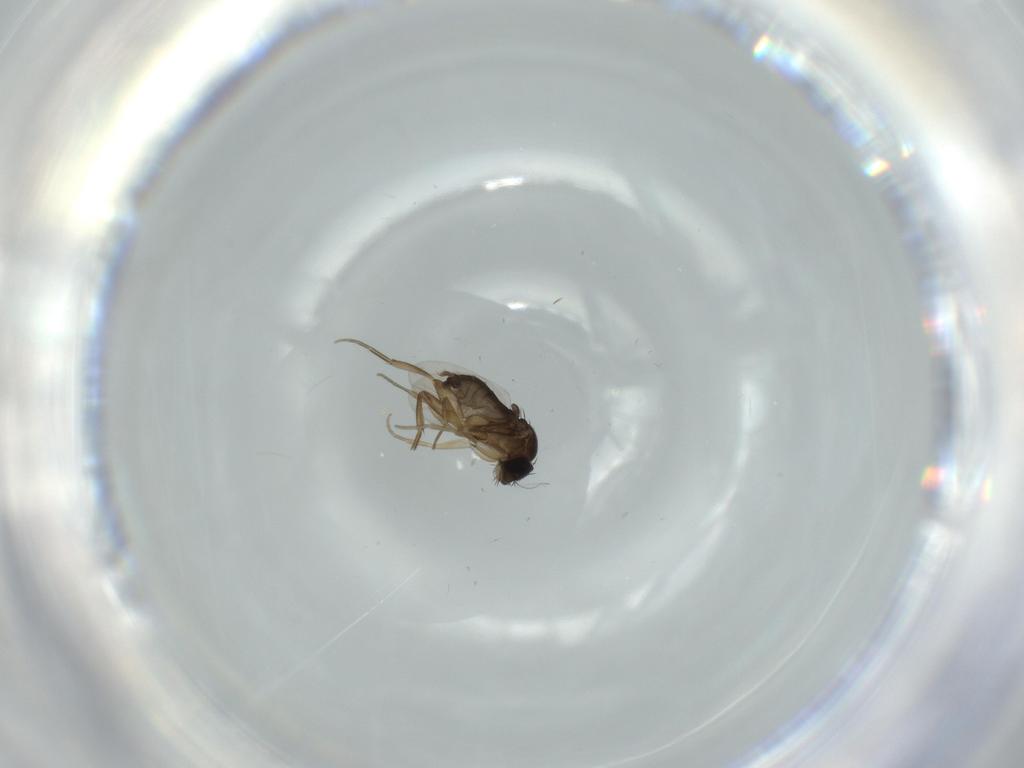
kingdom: Animalia
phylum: Arthropoda
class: Insecta
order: Diptera
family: Phoridae
